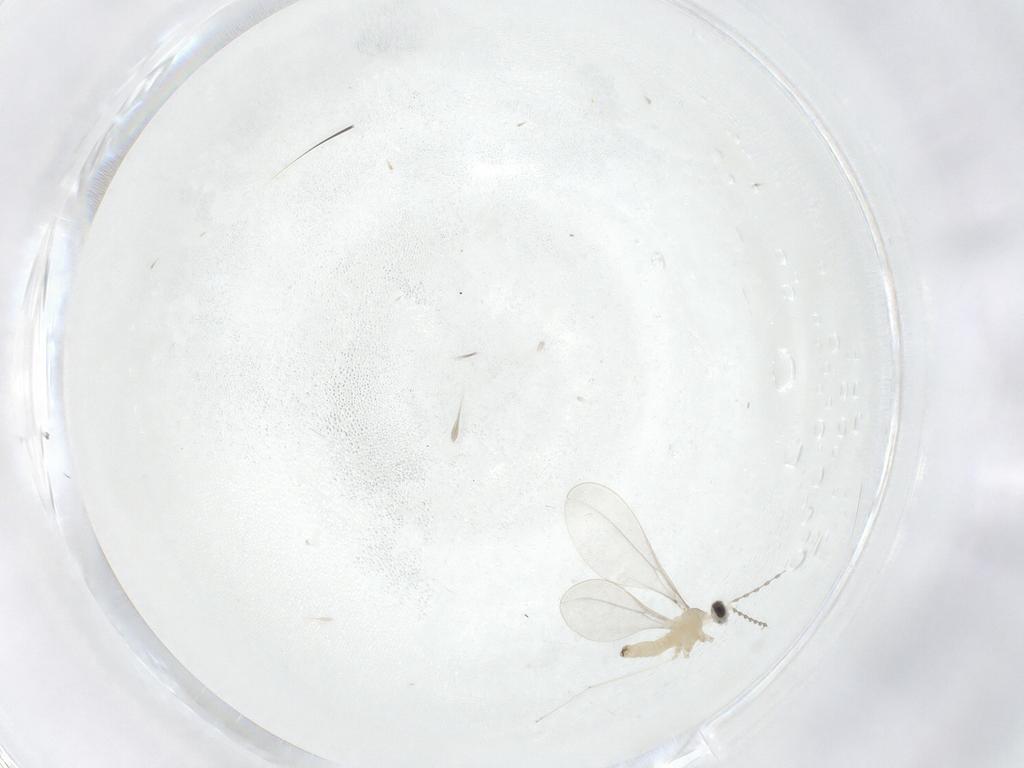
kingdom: Animalia
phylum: Arthropoda
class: Insecta
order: Diptera
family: Cecidomyiidae
